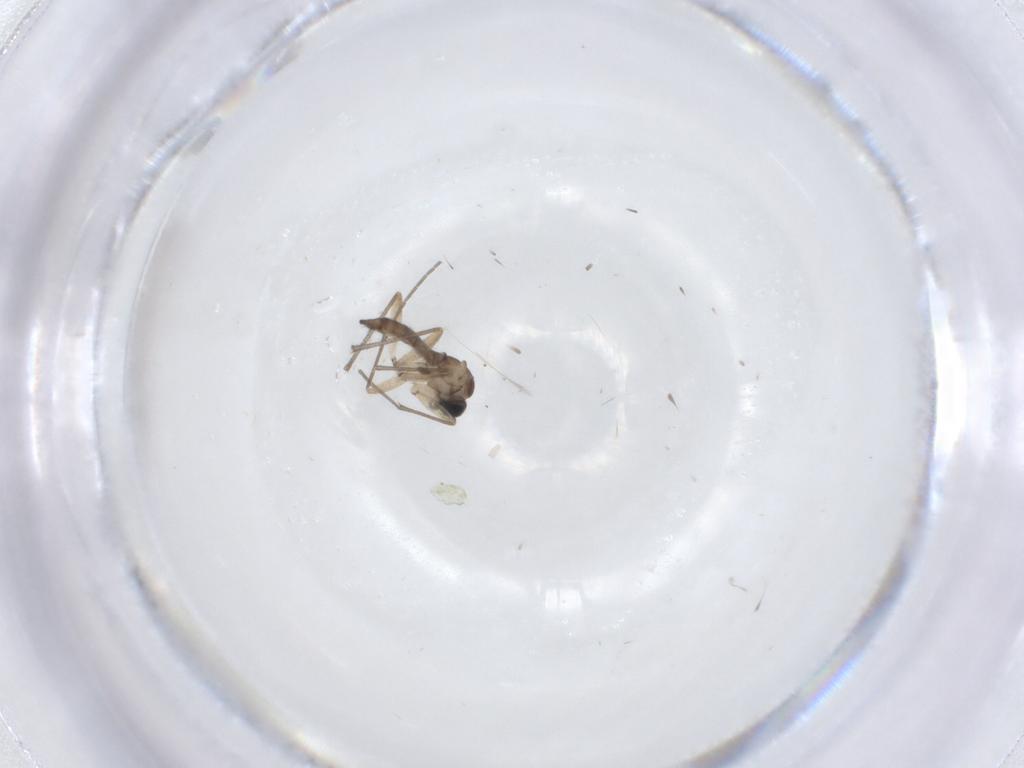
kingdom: Animalia
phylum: Arthropoda
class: Insecta
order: Diptera
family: Sciaridae
